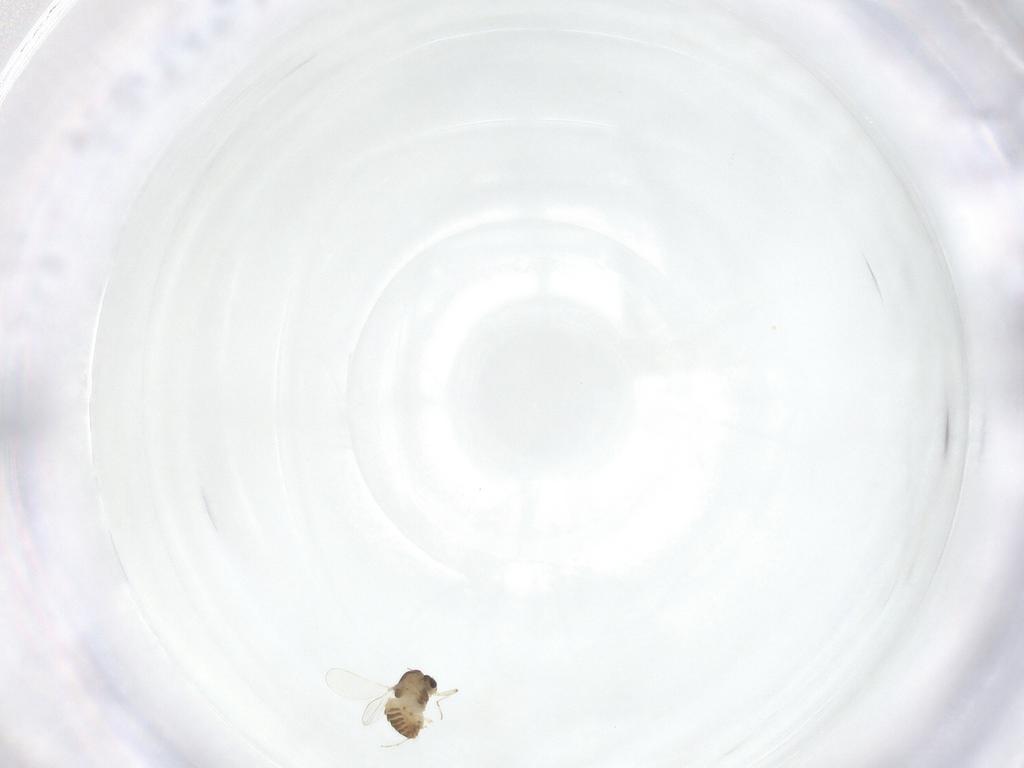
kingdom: Animalia
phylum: Arthropoda
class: Insecta
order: Diptera
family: Chironomidae
